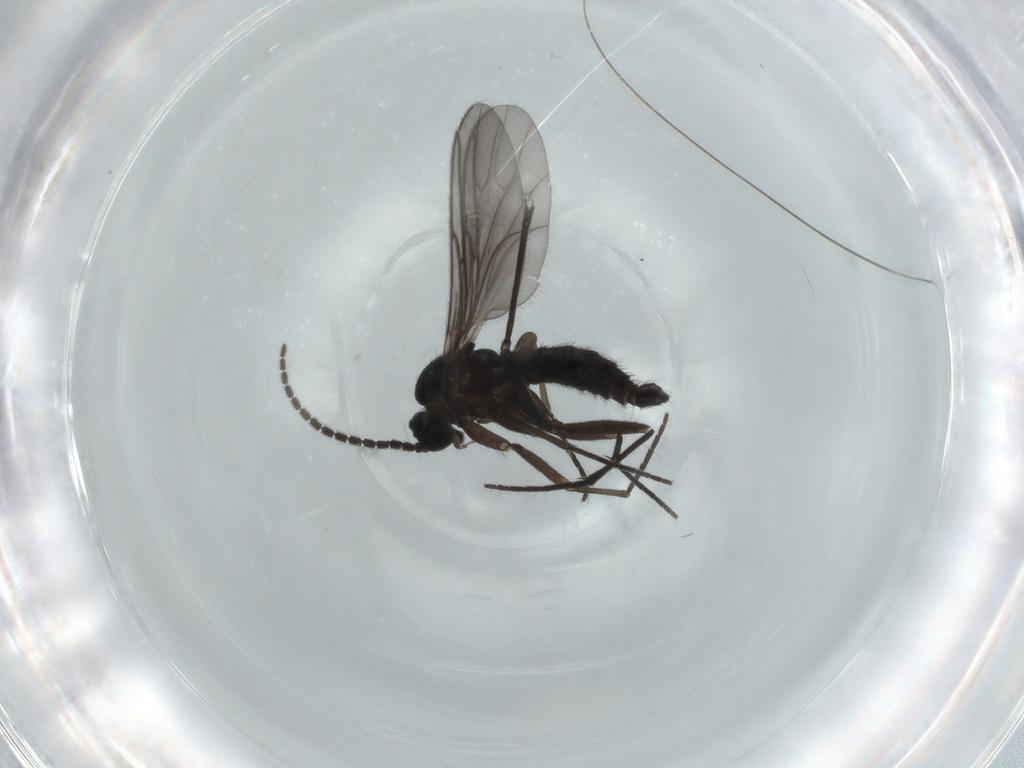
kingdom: Animalia
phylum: Arthropoda
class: Insecta
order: Diptera
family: Sciaridae
